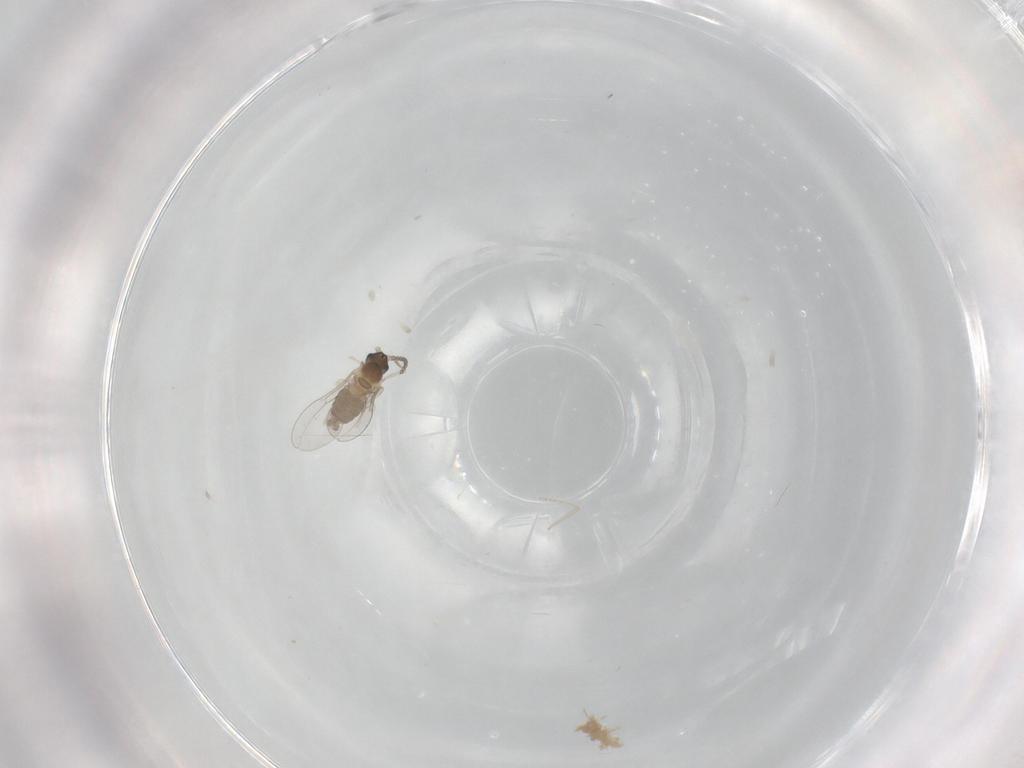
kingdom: Animalia
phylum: Arthropoda
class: Insecta
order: Diptera
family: Cecidomyiidae
